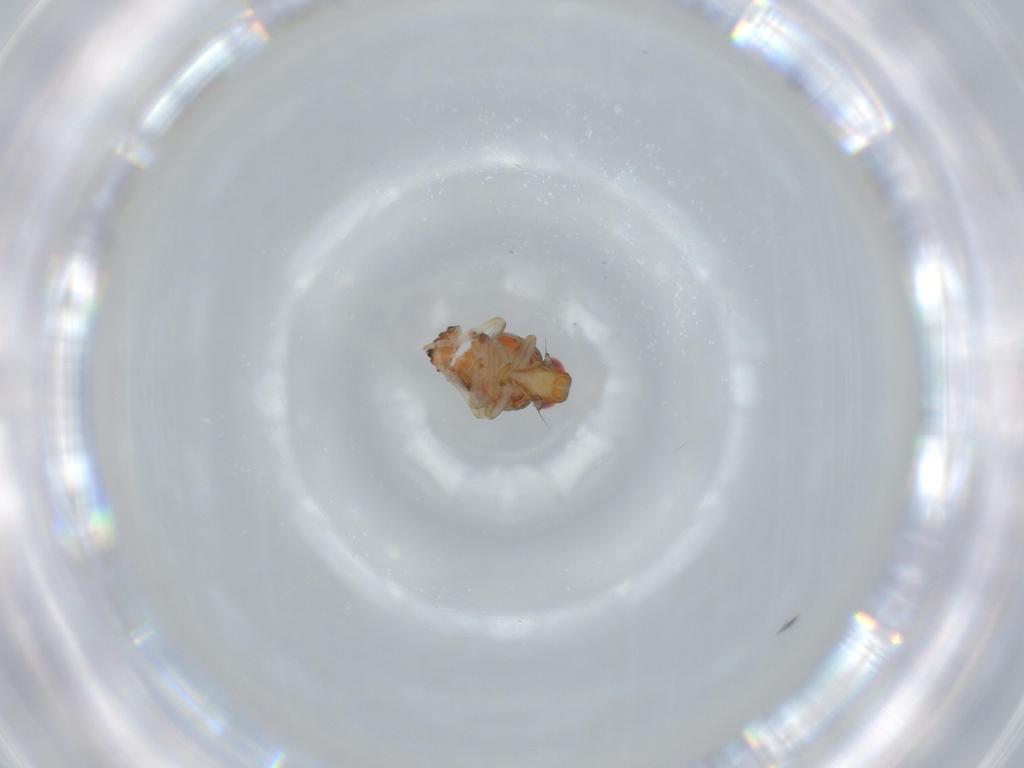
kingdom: Animalia
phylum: Arthropoda
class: Insecta
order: Hemiptera
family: Issidae
